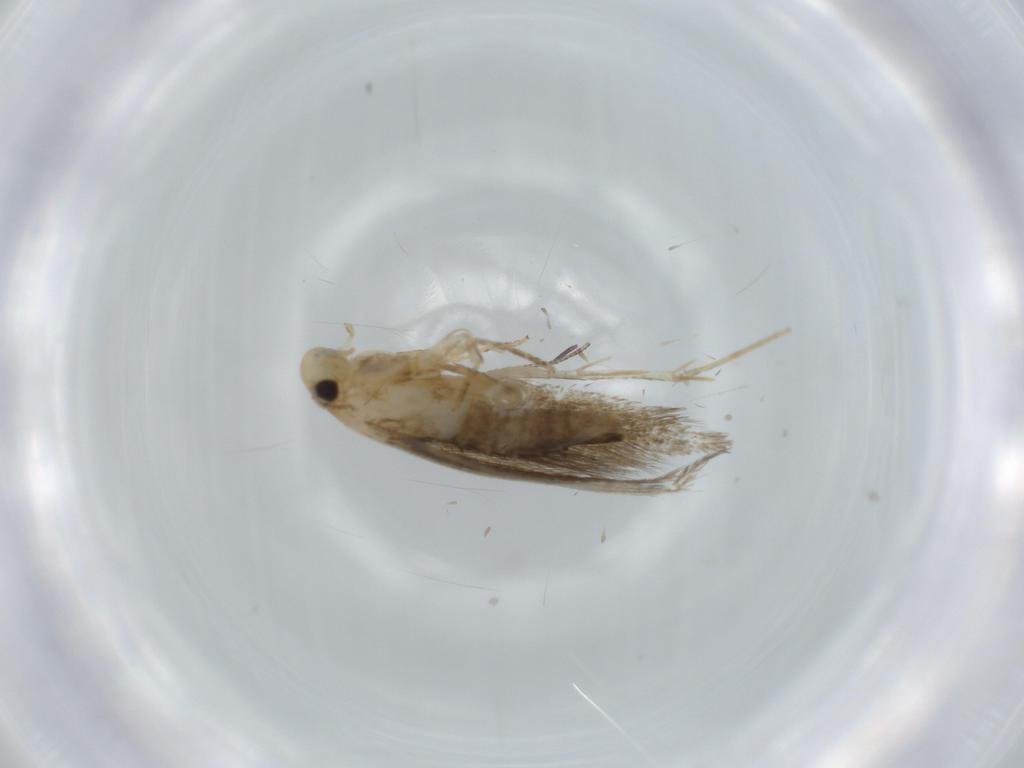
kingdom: Animalia
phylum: Arthropoda
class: Insecta
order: Lepidoptera
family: Tineidae
